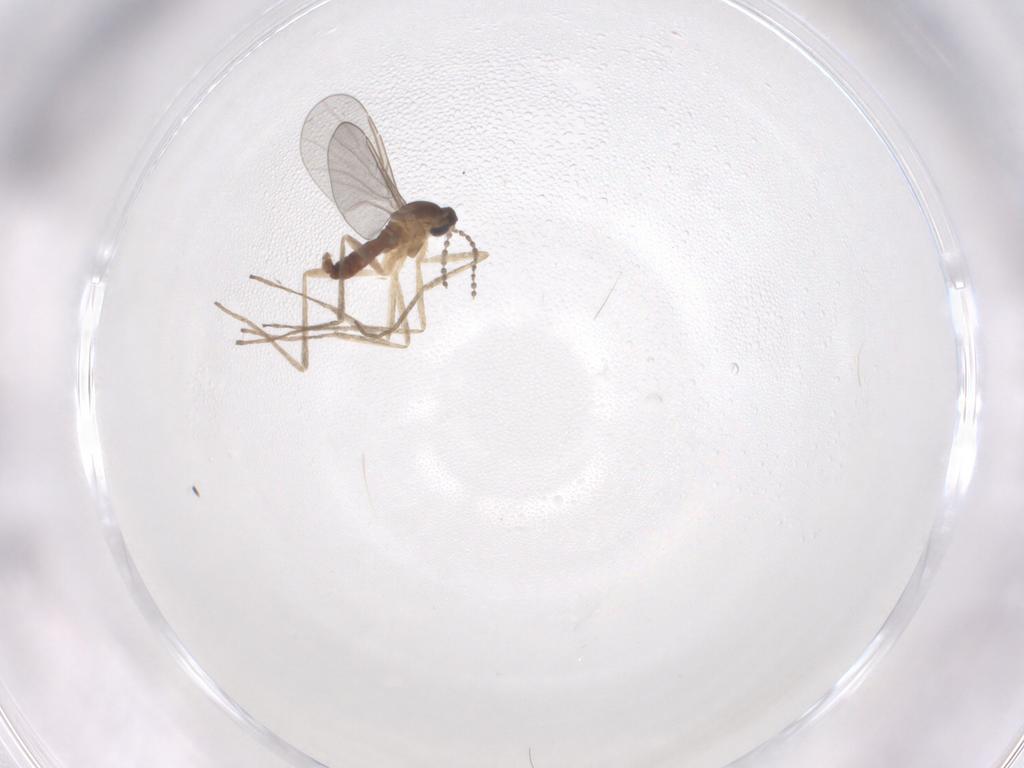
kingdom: Animalia
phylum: Arthropoda
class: Insecta
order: Diptera
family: Cecidomyiidae
